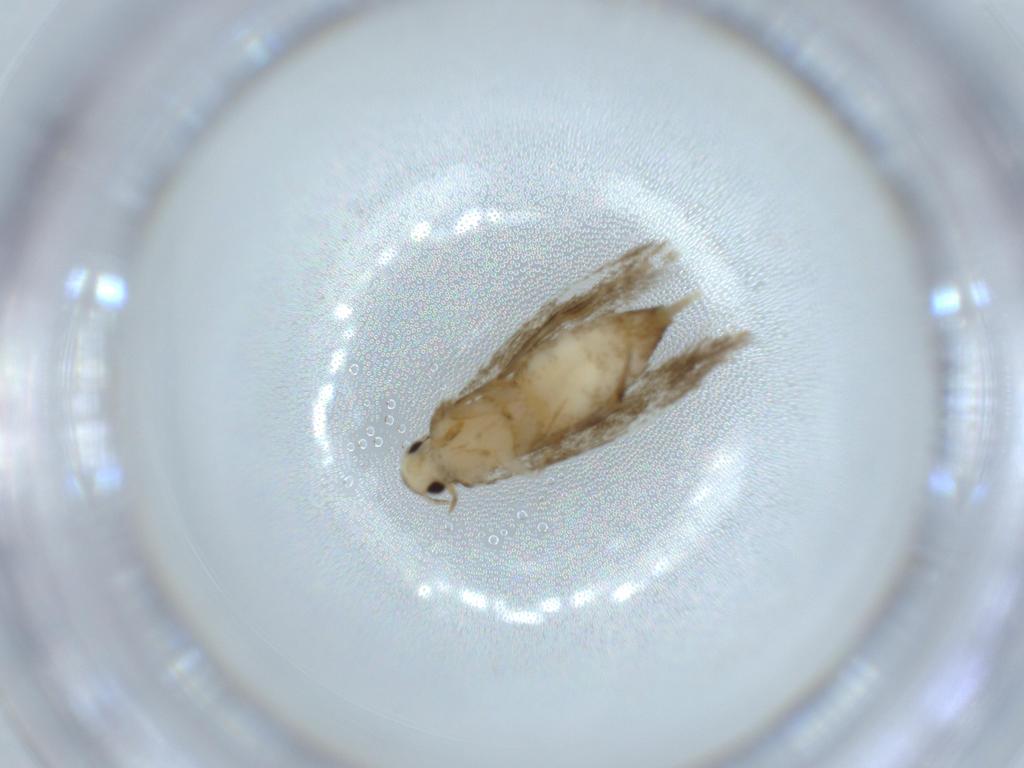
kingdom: Animalia
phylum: Arthropoda
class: Insecta
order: Lepidoptera
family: Tineidae
